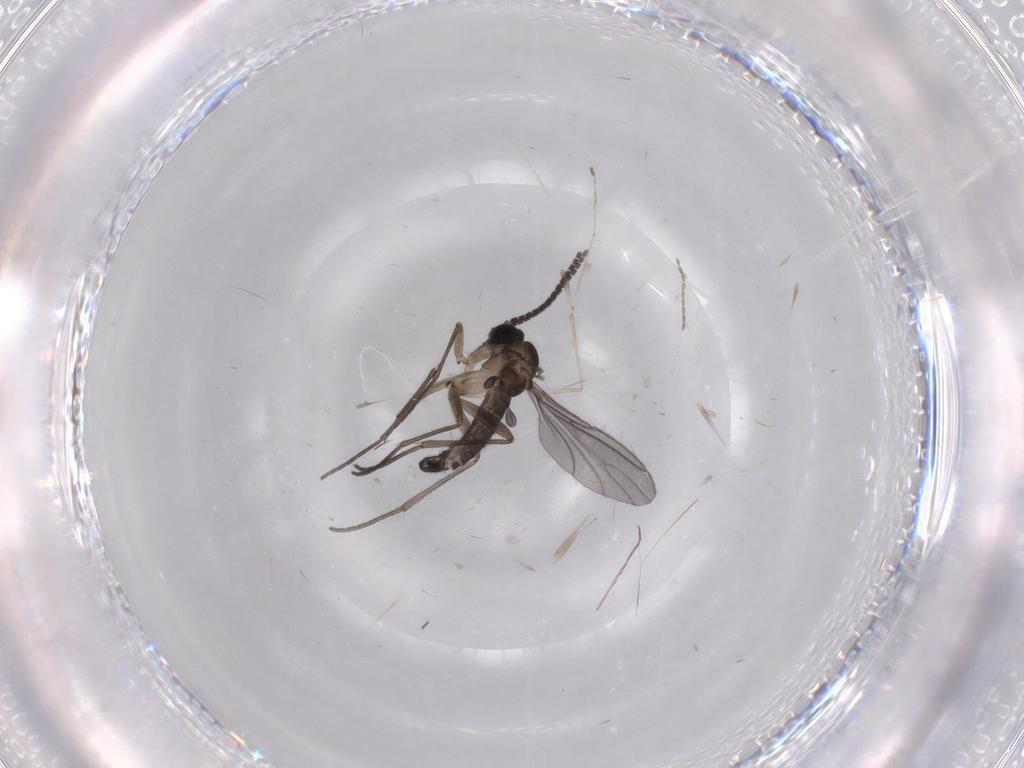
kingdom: Animalia
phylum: Arthropoda
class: Insecta
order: Diptera
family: Sciaridae
